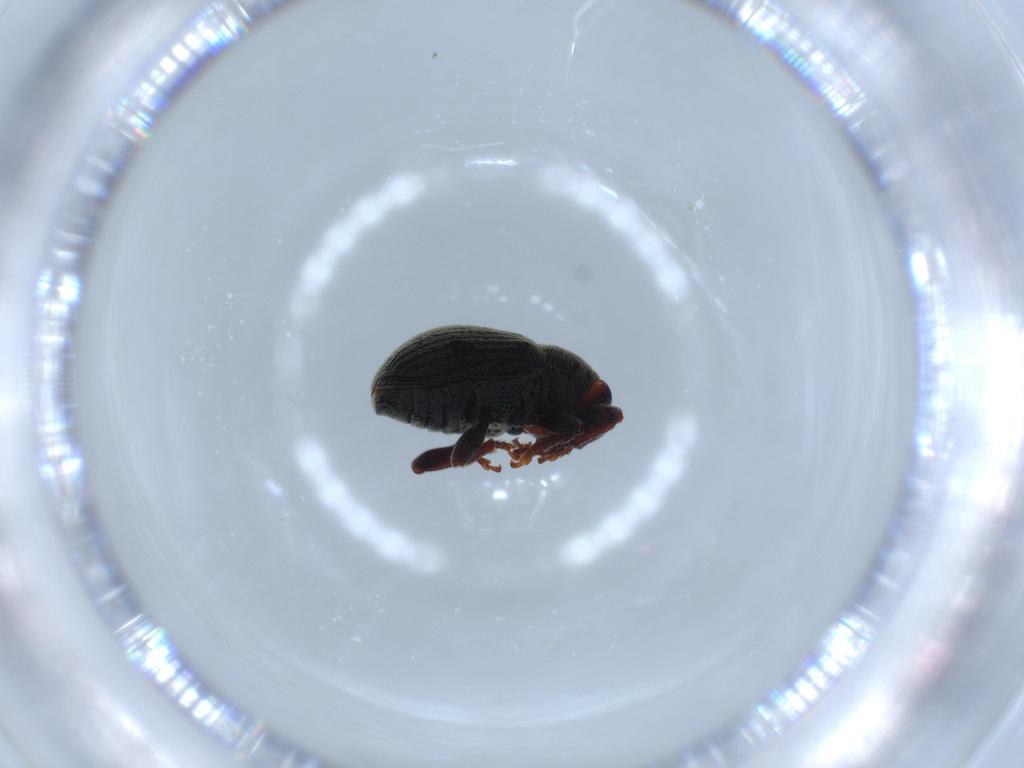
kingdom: Animalia
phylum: Arthropoda
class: Insecta
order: Coleoptera
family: Curculionidae
